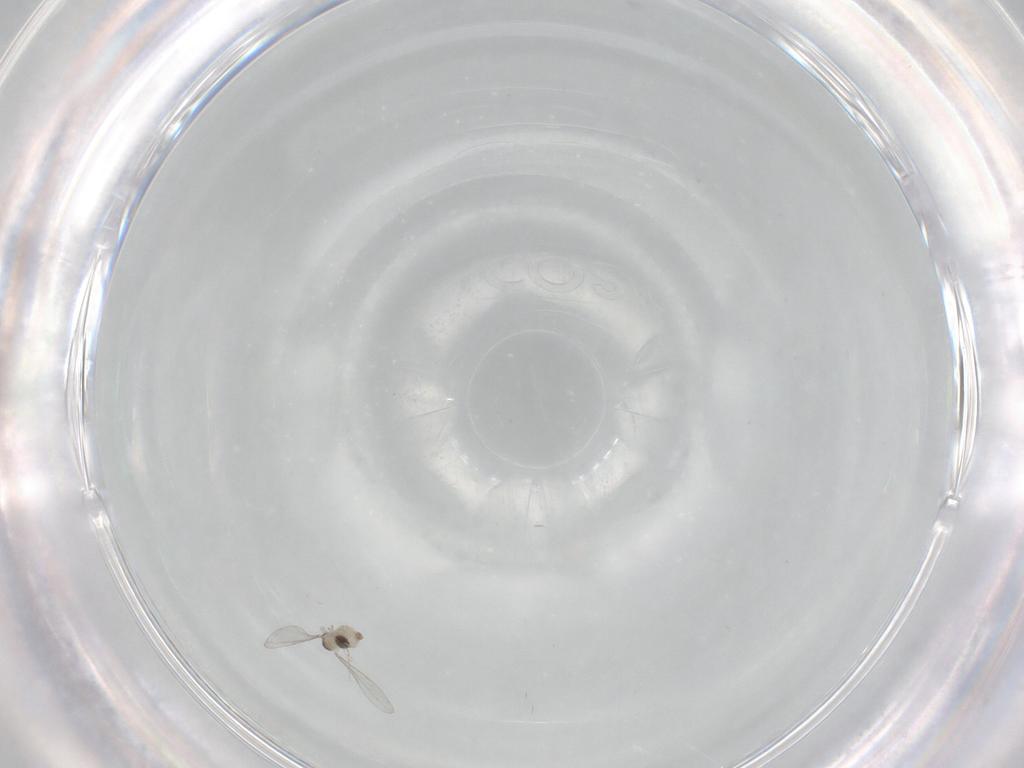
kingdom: Animalia
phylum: Arthropoda
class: Insecta
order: Diptera
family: Cecidomyiidae
